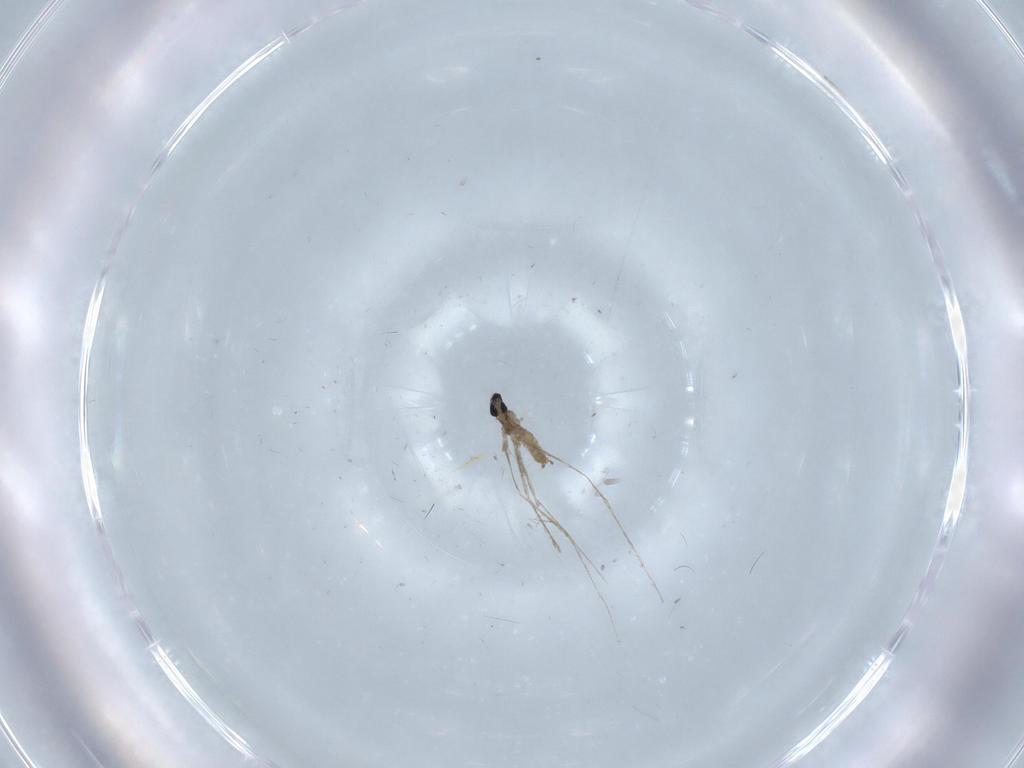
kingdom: Animalia
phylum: Arthropoda
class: Insecta
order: Diptera
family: Cecidomyiidae
